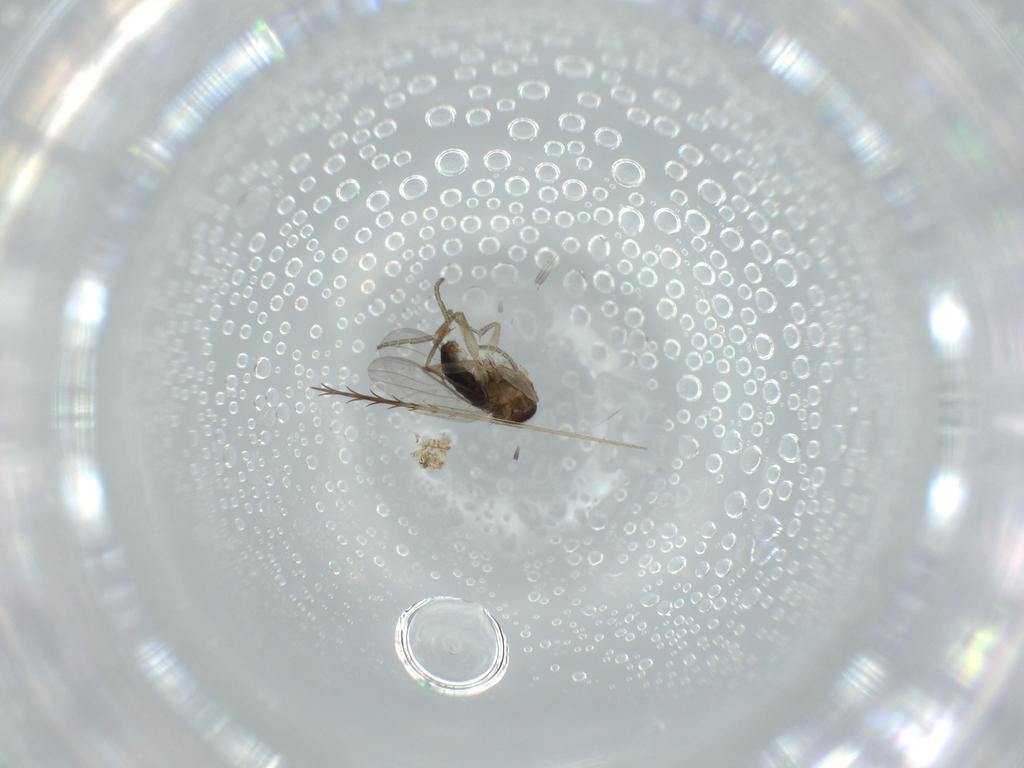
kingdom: Animalia
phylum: Arthropoda
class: Insecta
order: Diptera
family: Phoridae
